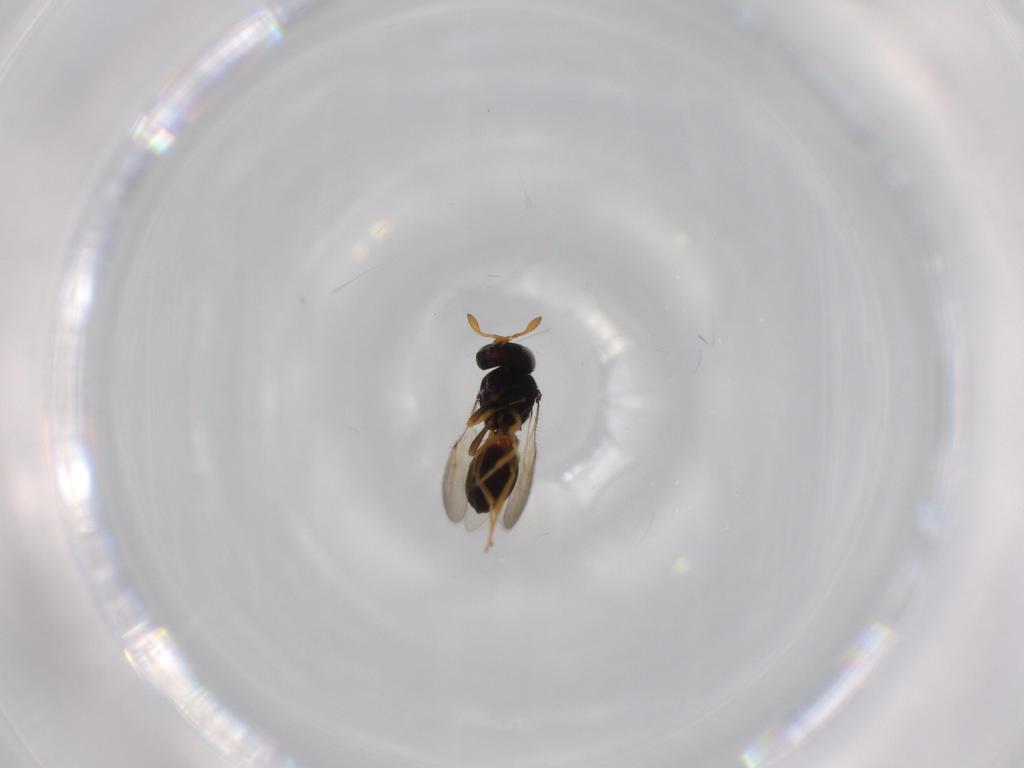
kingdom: Animalia
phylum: Arthropoda
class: Insecta
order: Hymenoptera
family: Scelionidae
